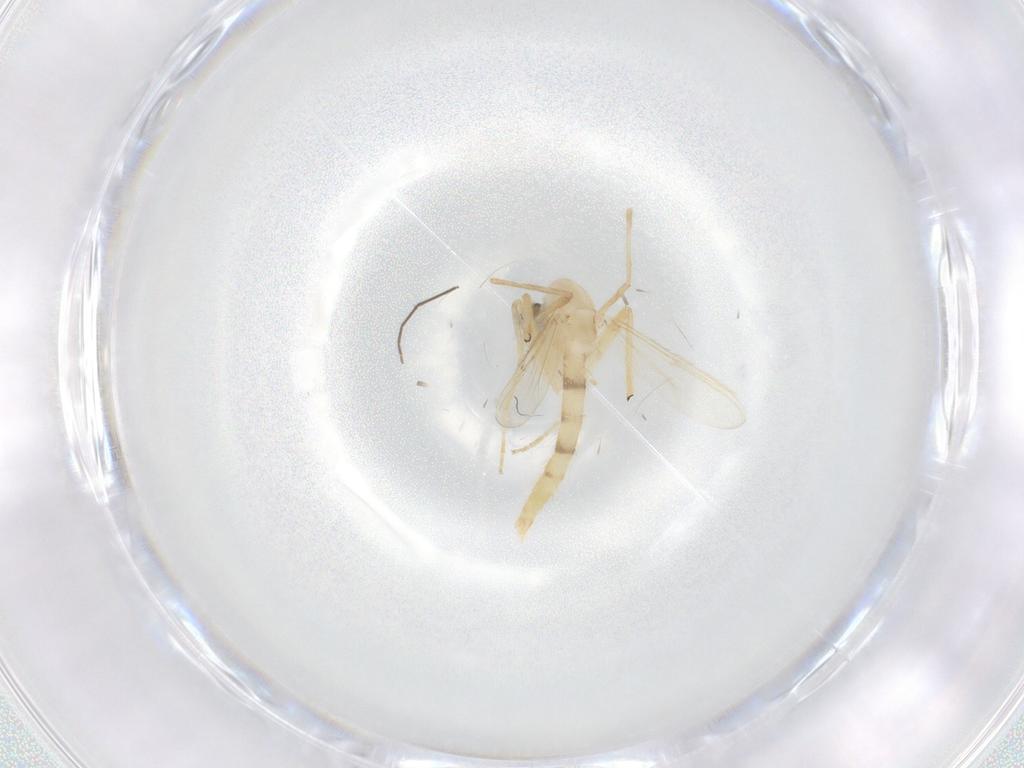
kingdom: Animalia
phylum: Arthropoda
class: Insecta
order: Diptera
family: Chironomidae
